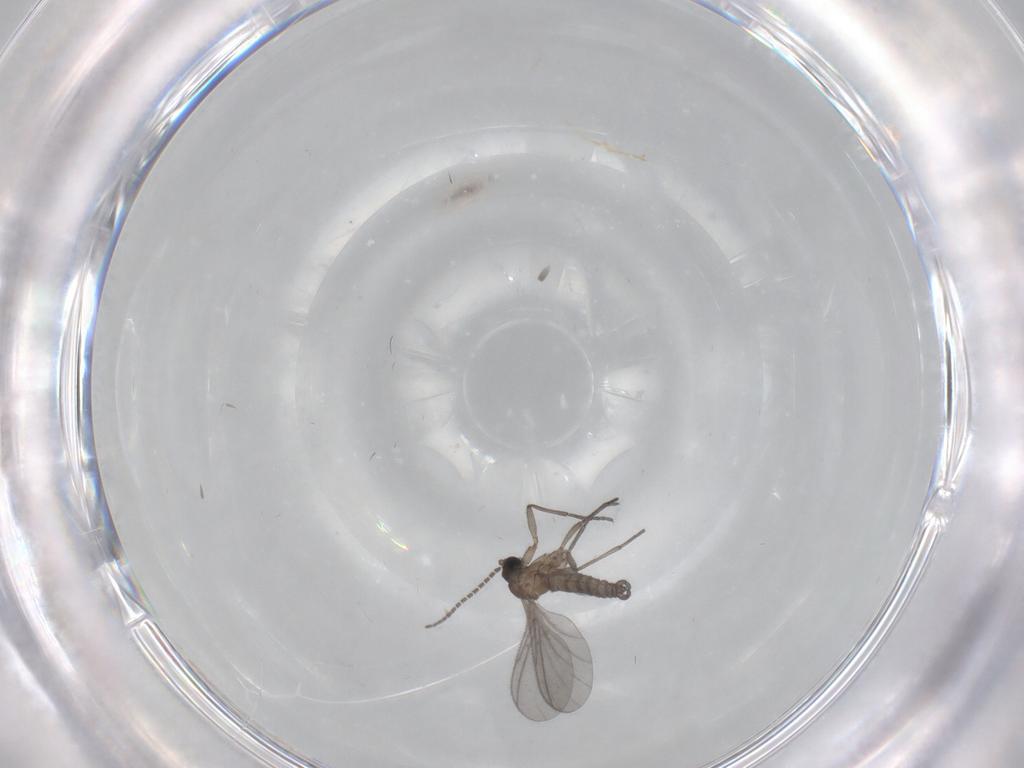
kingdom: Animalia
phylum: Arthropoda
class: Insecta
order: Diptera
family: Sciaridae
